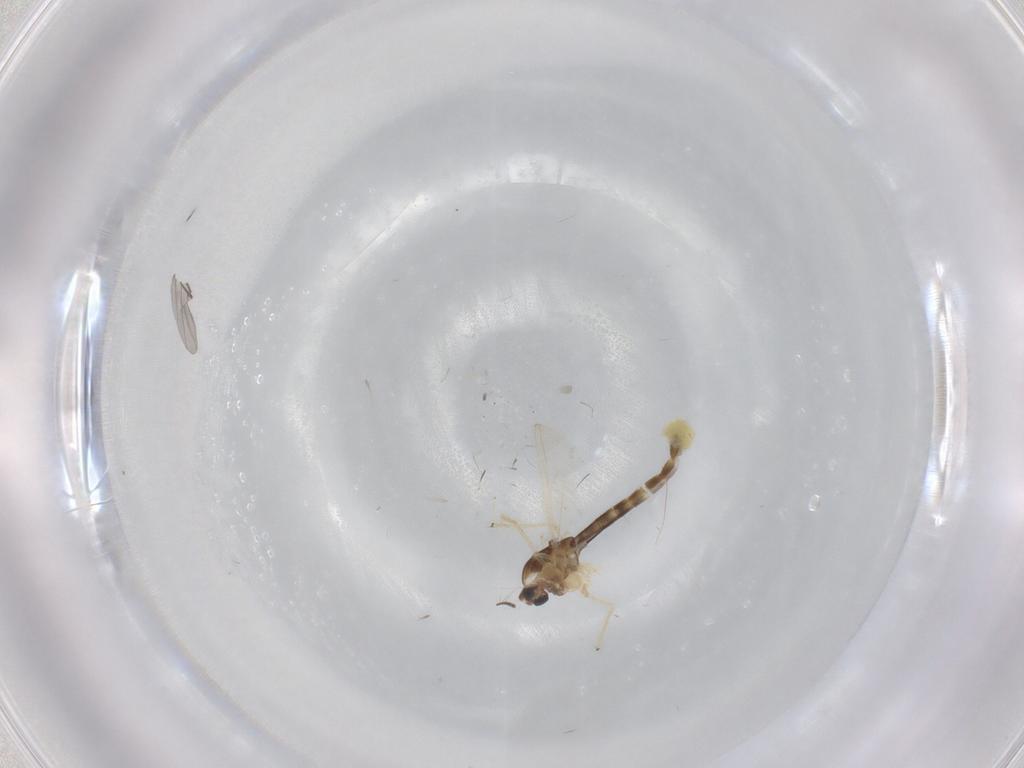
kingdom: Animalia
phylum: Arthropoda
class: Insecta
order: Diptera
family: Chironomidae
